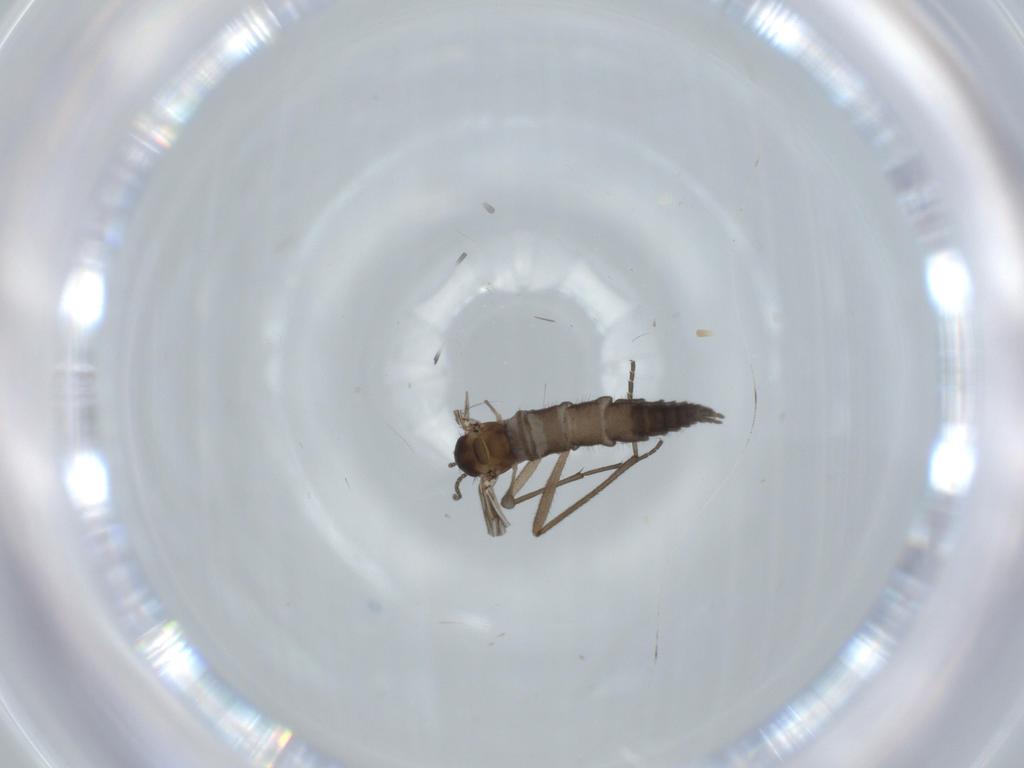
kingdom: Animalia
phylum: Arthropoda
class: Insecta
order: Diptera
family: Sciaridae
